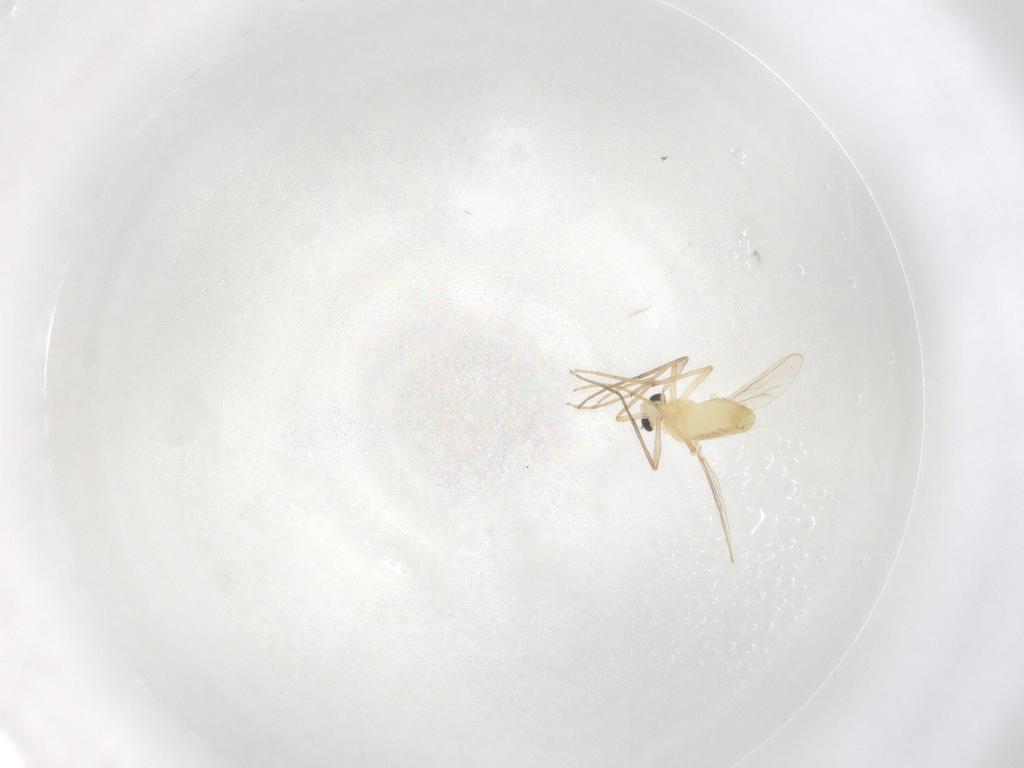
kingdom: Animalia
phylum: Arthropoda
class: Insecta
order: Diptera
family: Chironomidae
